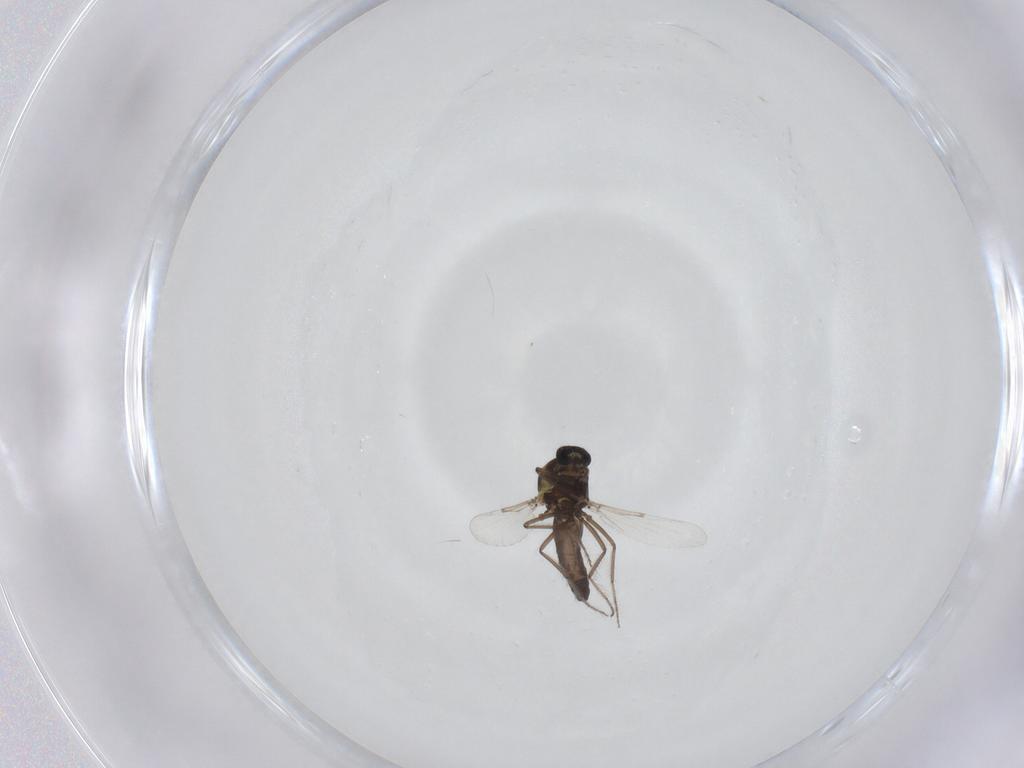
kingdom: Animalia
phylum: Arthropoda
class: Insecta
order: Diptera
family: Ceratopogonidae
